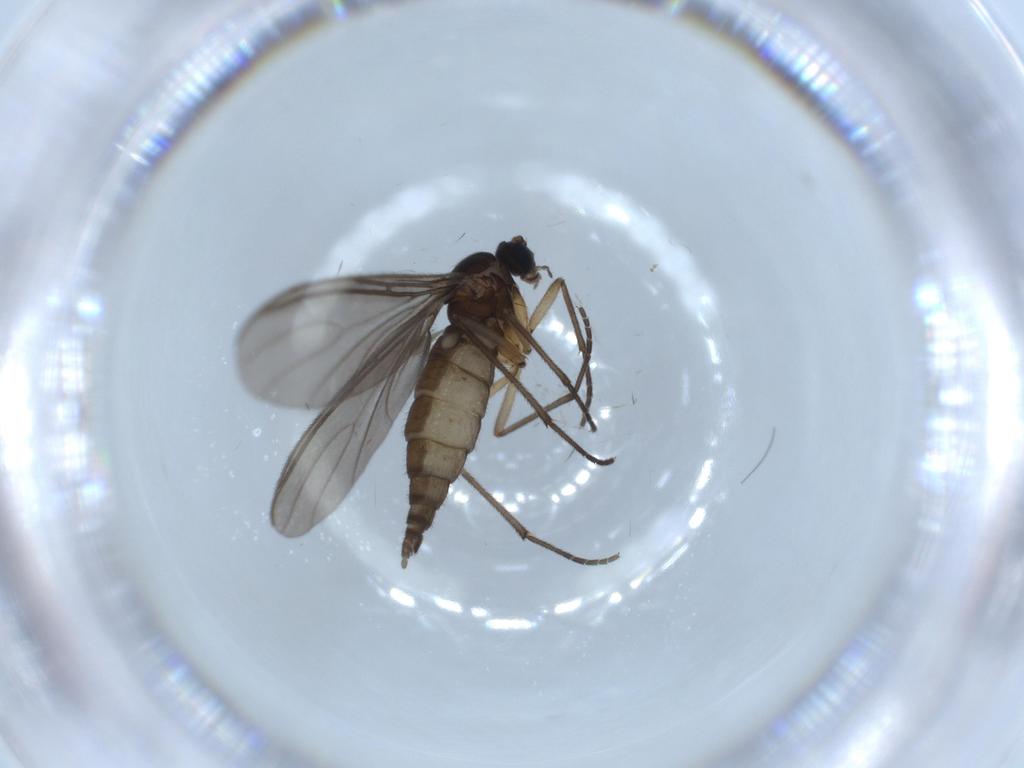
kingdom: Animalia
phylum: Arthropoda
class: Insecta
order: Diptera
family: Sciaridae
